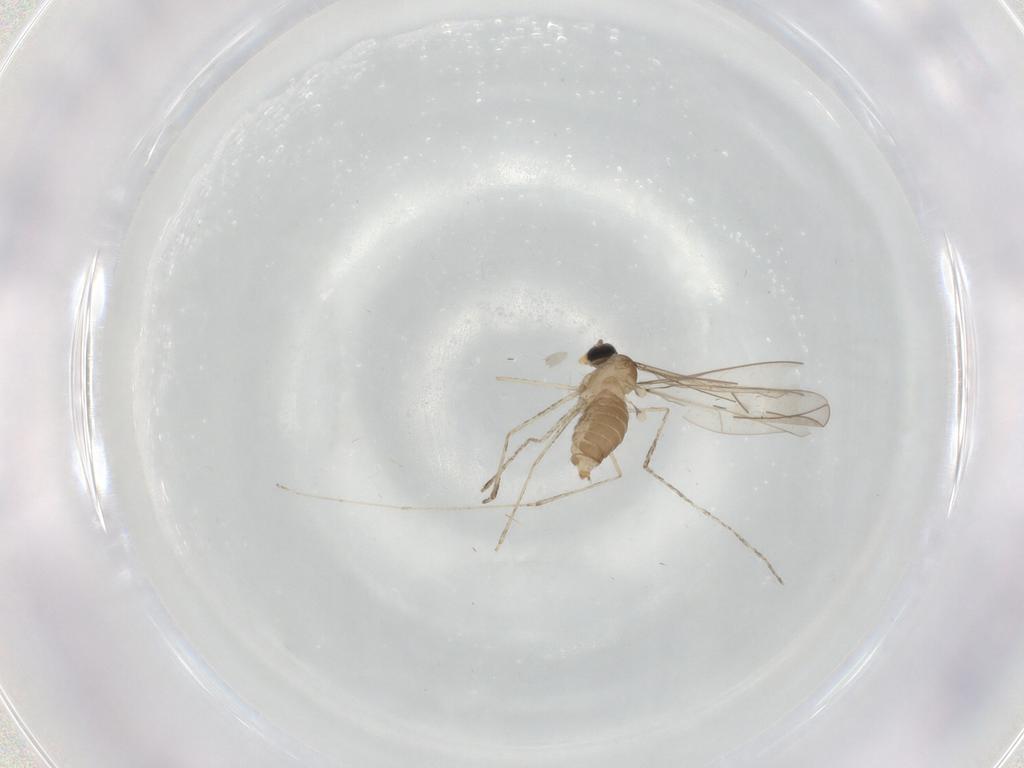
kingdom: Animalia
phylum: Arthropoda
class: Insecta
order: Diptera
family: Cecidomyiidae
